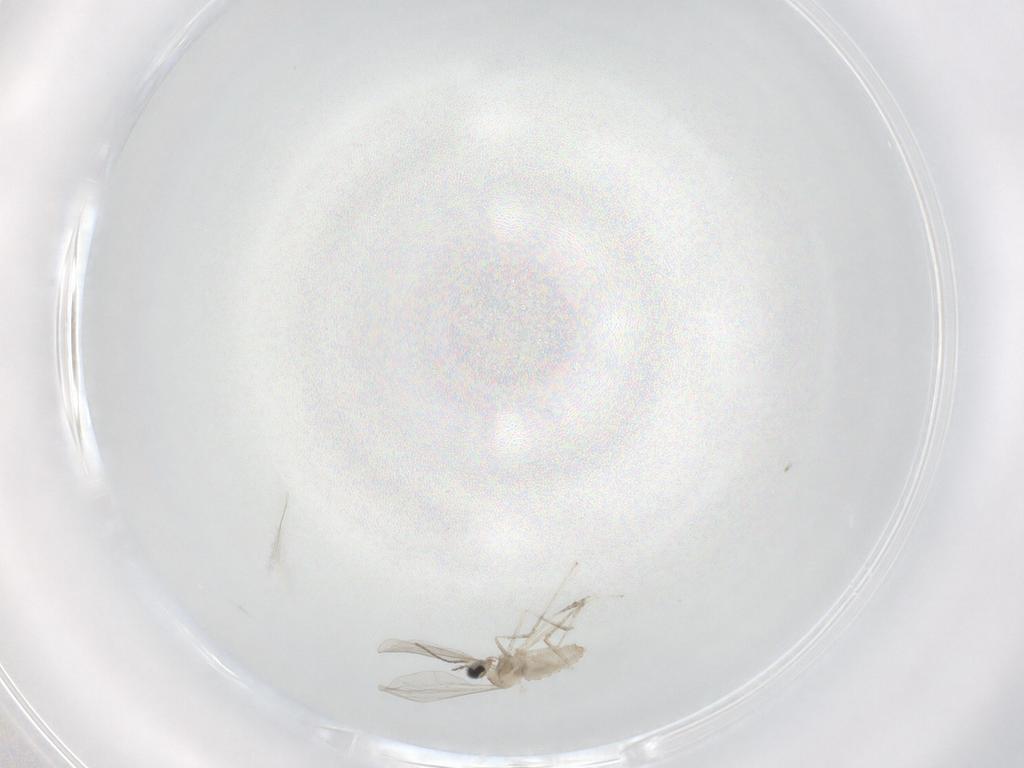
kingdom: Animalia
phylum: Arthropoda
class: Insecta
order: Diptera
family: Cecidomyiidae
